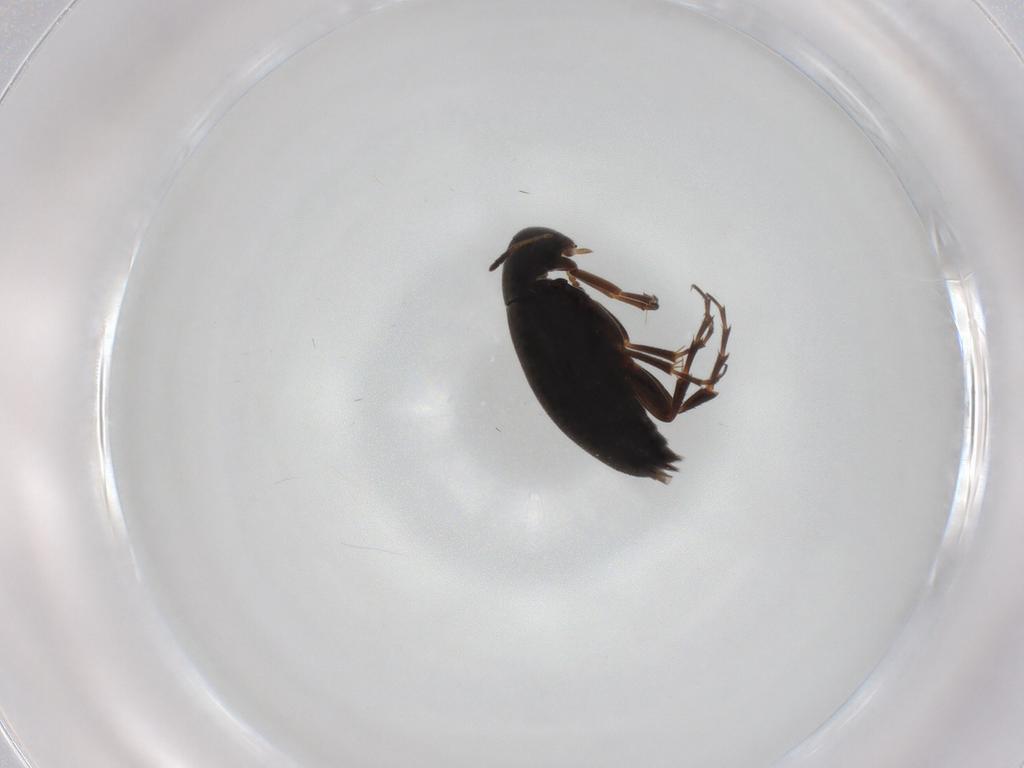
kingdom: Animalia
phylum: Arthropoda
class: Insecta
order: Coleoptera
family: Scraptiidae
